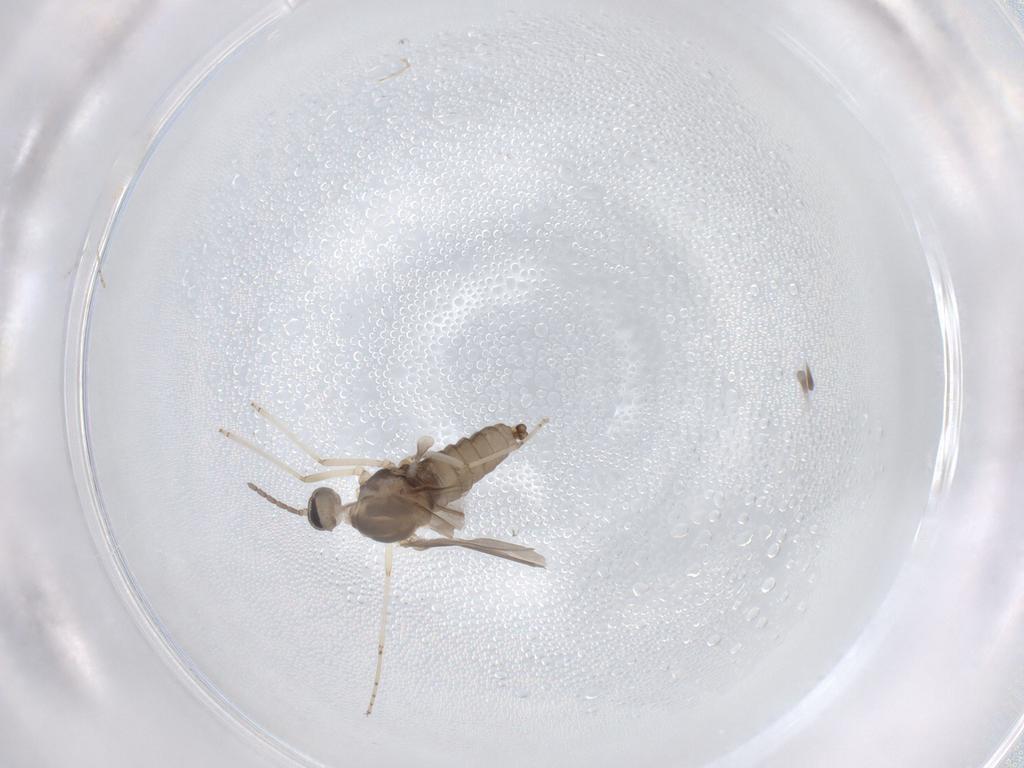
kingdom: Animalia
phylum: Arthropoda
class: Insecta
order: Diptera
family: Cecidomyiidae
